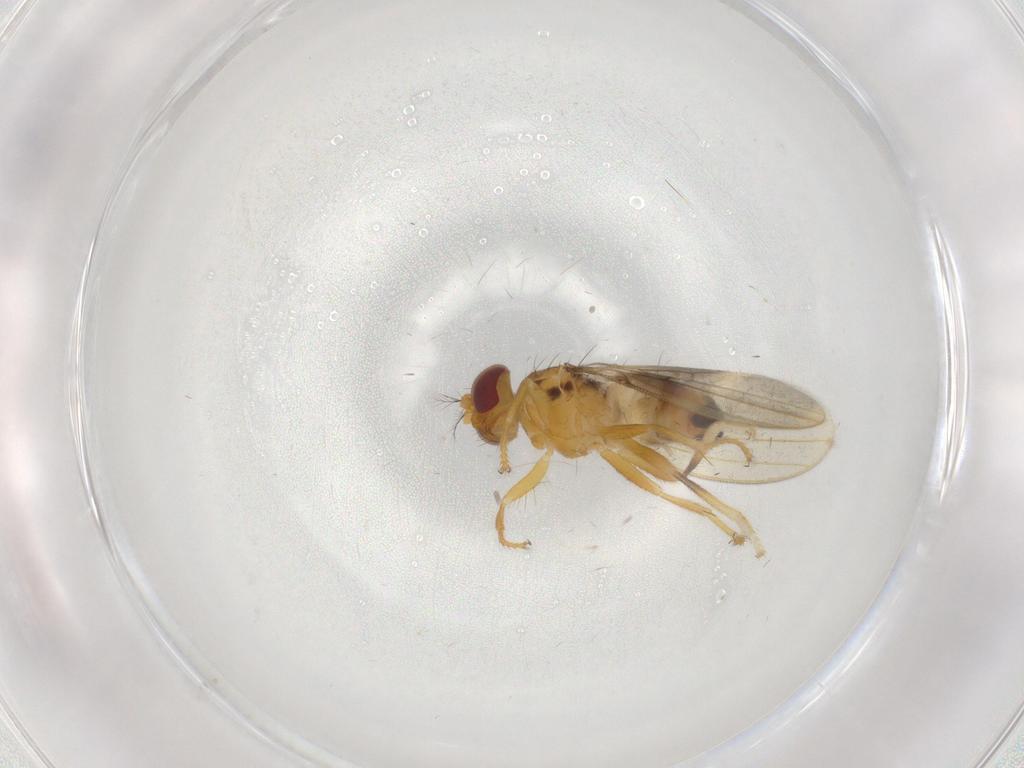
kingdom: Animalia
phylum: Arthropoda
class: Insecta
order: Diptera
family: Periscelididae
